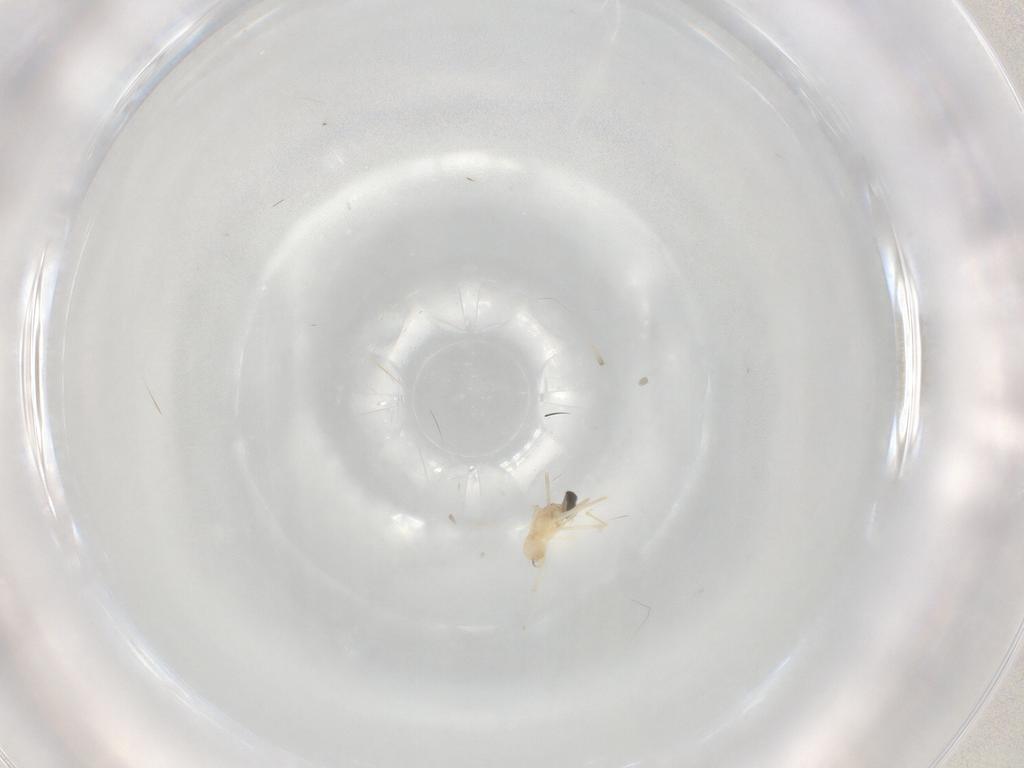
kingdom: Animalia
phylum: Arthropoda
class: Insecta
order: Diptera
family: Cecidomyiidae
